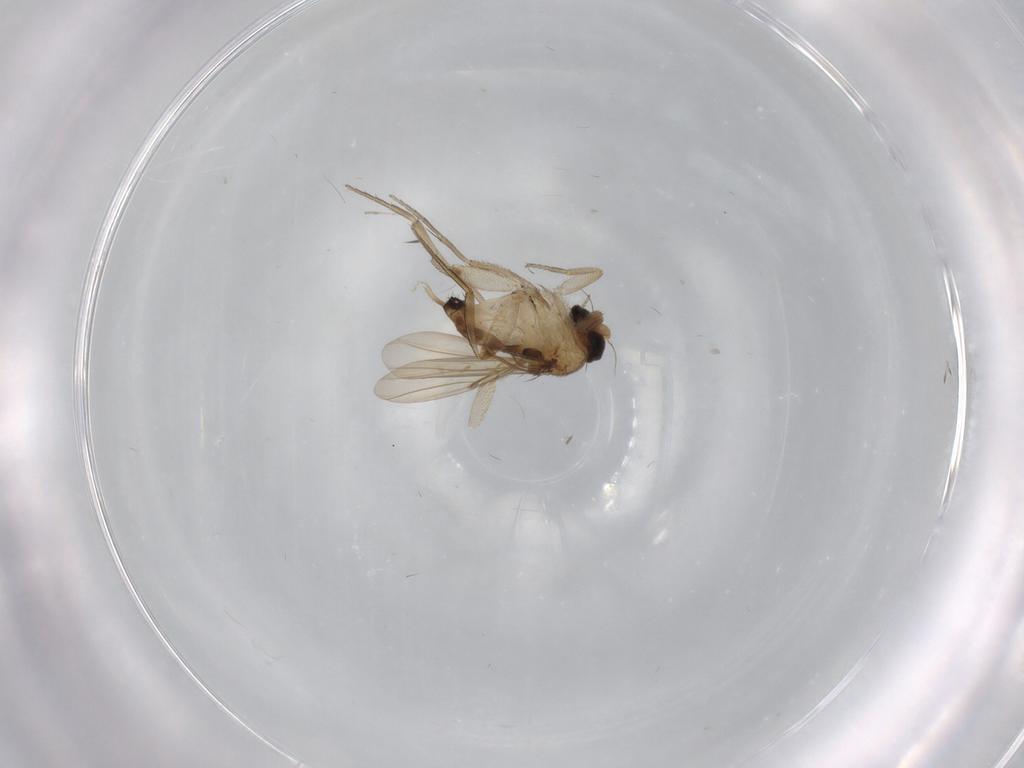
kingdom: Animalia
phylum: Arthropoda
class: Insecta
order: Diptera
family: Phoridae
